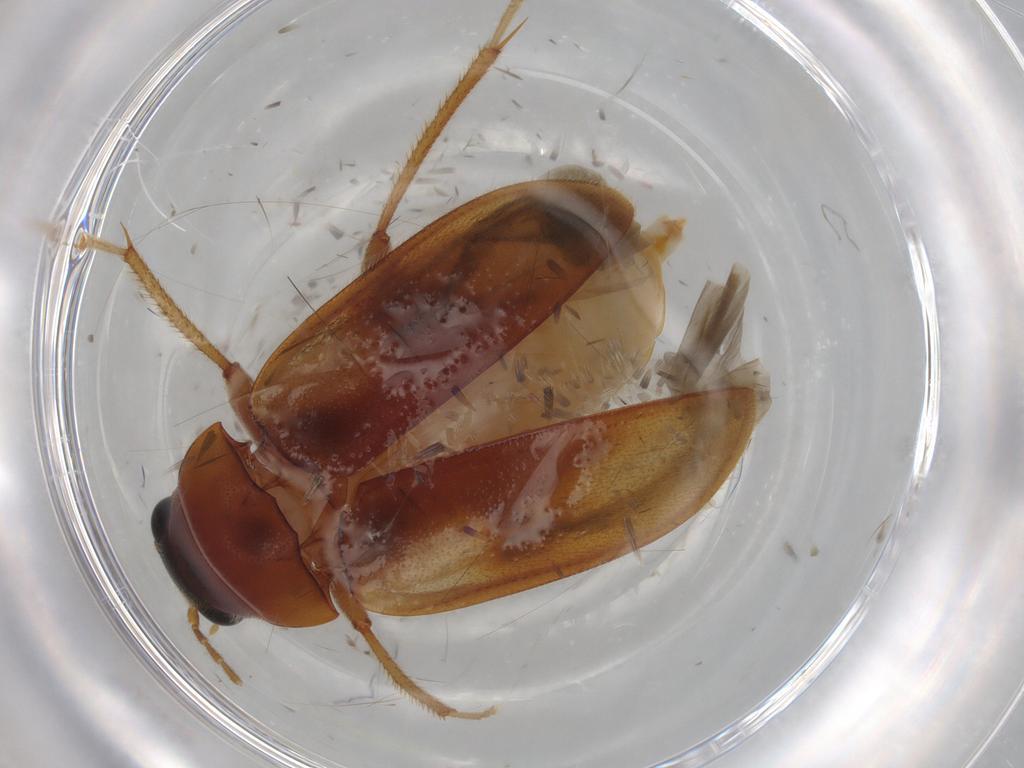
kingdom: Animalia
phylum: Arthropoda
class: Insecta
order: Coleoptera
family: Ptilodactylidae
